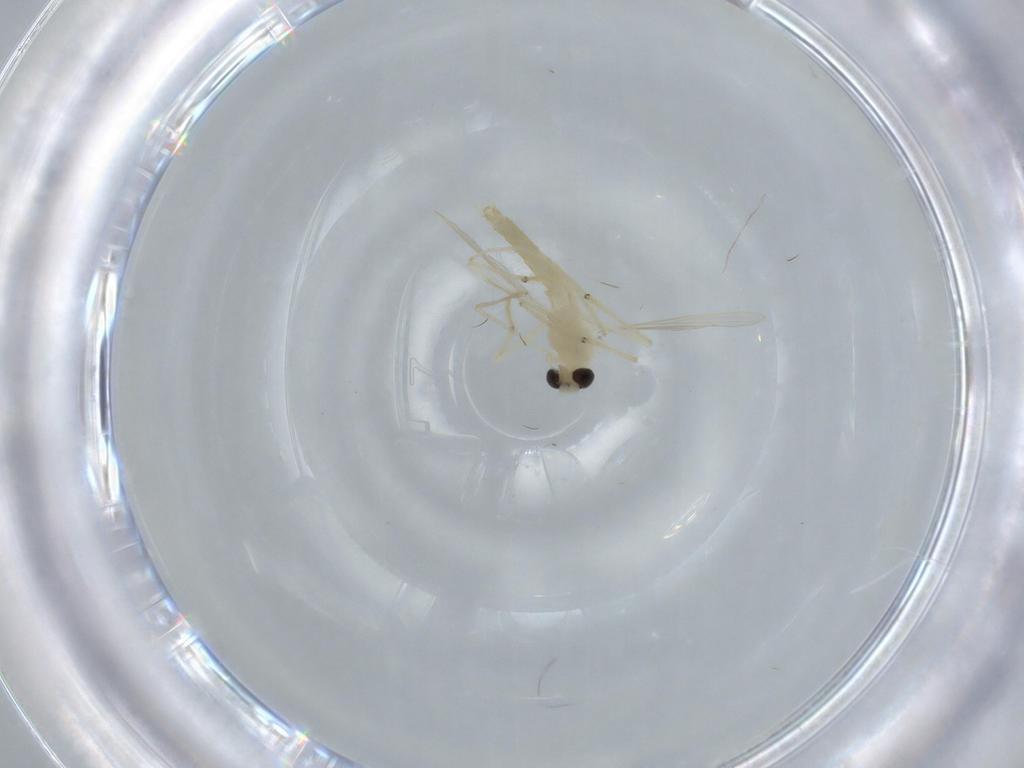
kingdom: Animalia
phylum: Arthropoda
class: Insecta
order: Diptera
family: Chironomidae
